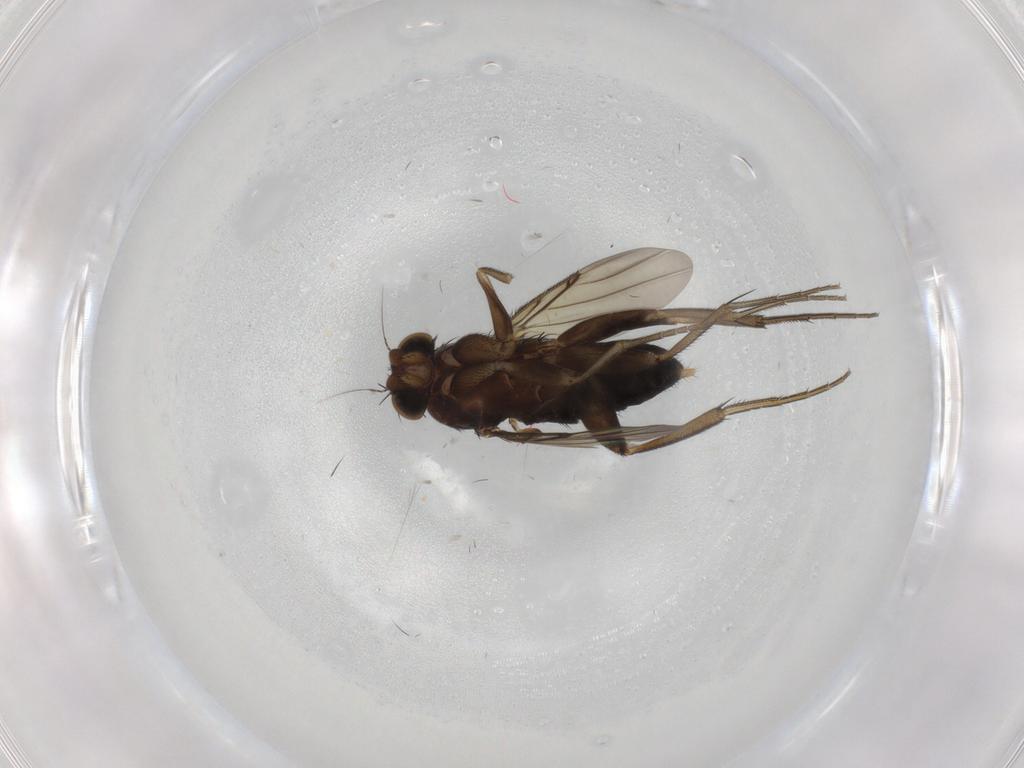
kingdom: Animalia
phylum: Arthropoda
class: Insecta
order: Diptera
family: Phoridae
